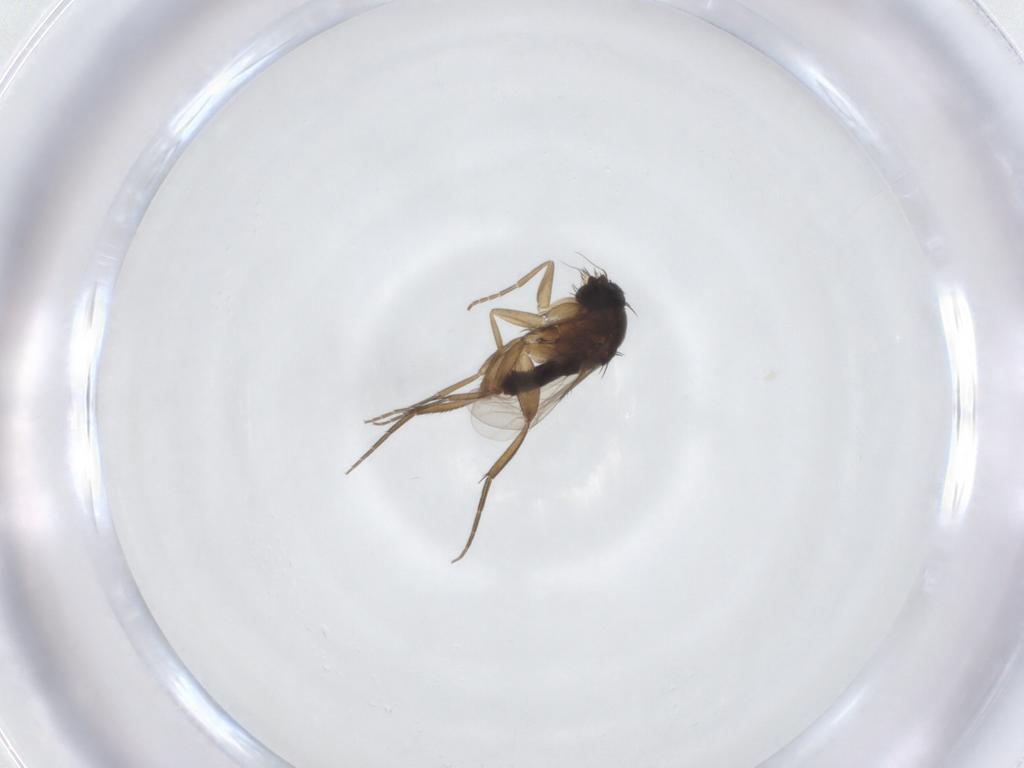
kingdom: Animalia
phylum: Arthropoda
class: Insecta
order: Diptera
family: Phoridae
